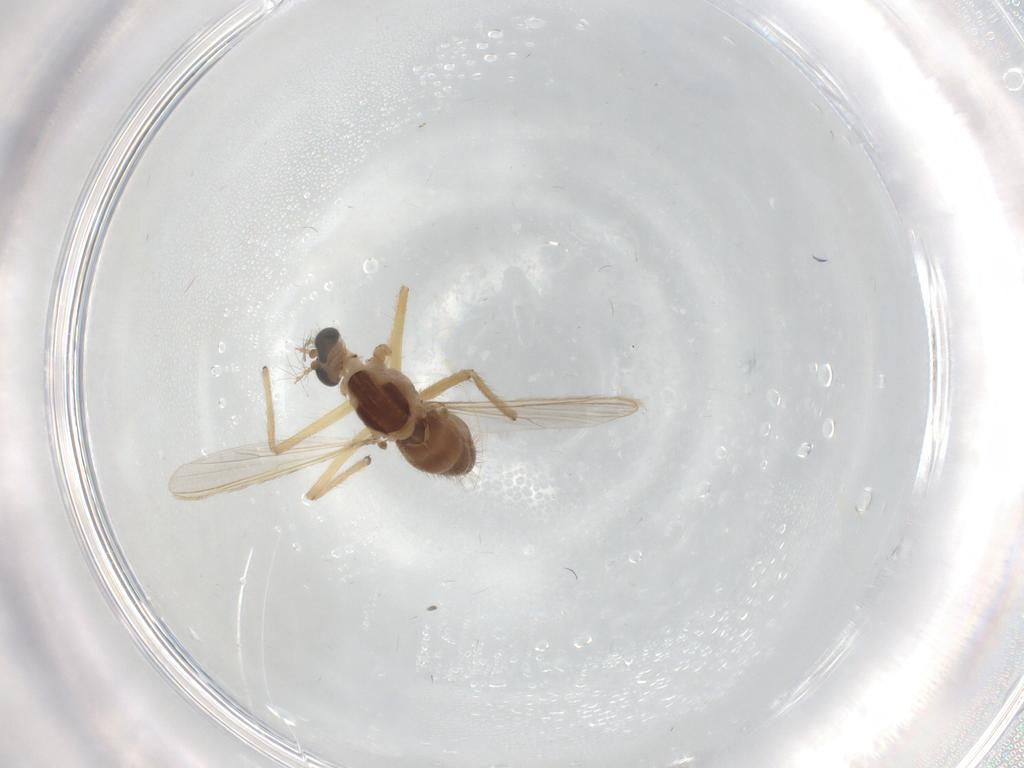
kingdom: Animalia
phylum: Arthropoda
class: Insecta
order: Diptera
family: Chironomidae
